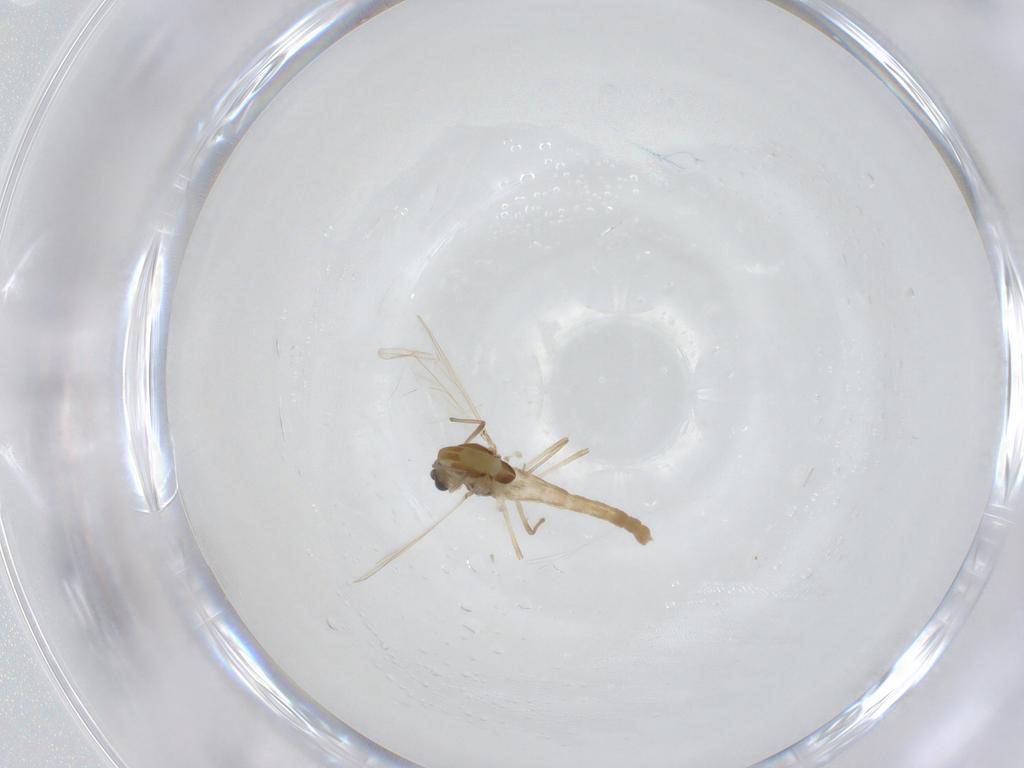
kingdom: Animalia
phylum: Arthropoda
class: Insecta
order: Diptera
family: Chironomidae
